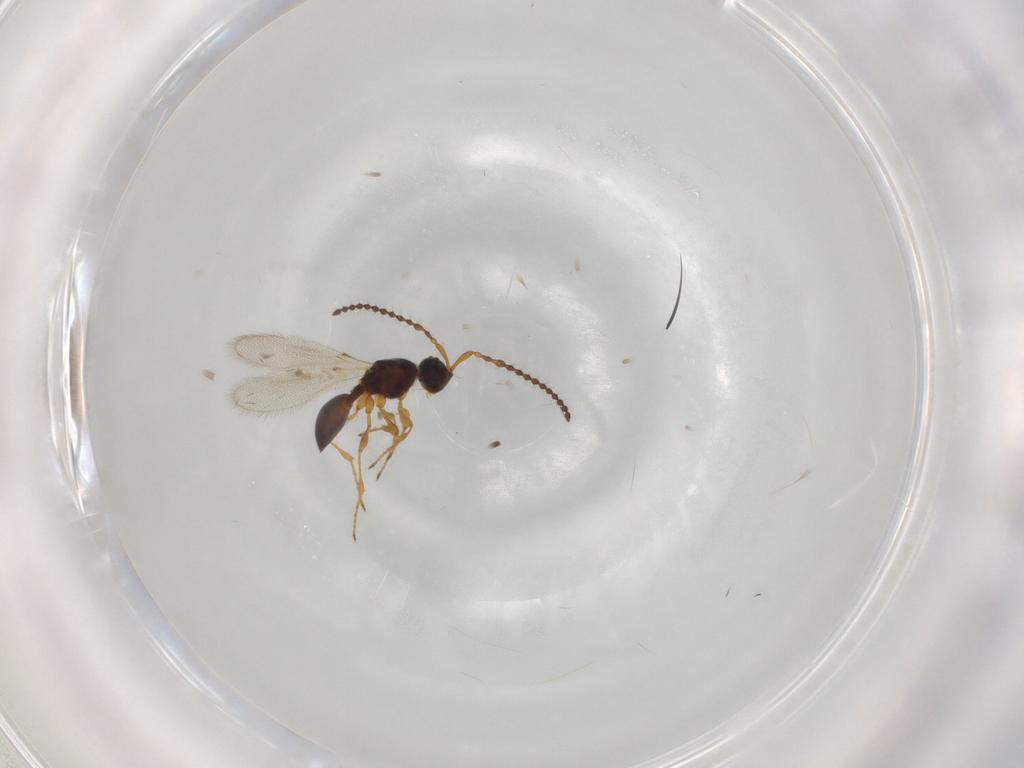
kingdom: Animalia
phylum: Arthropoda
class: Insecta
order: Hymenoptera
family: Diapriidae
